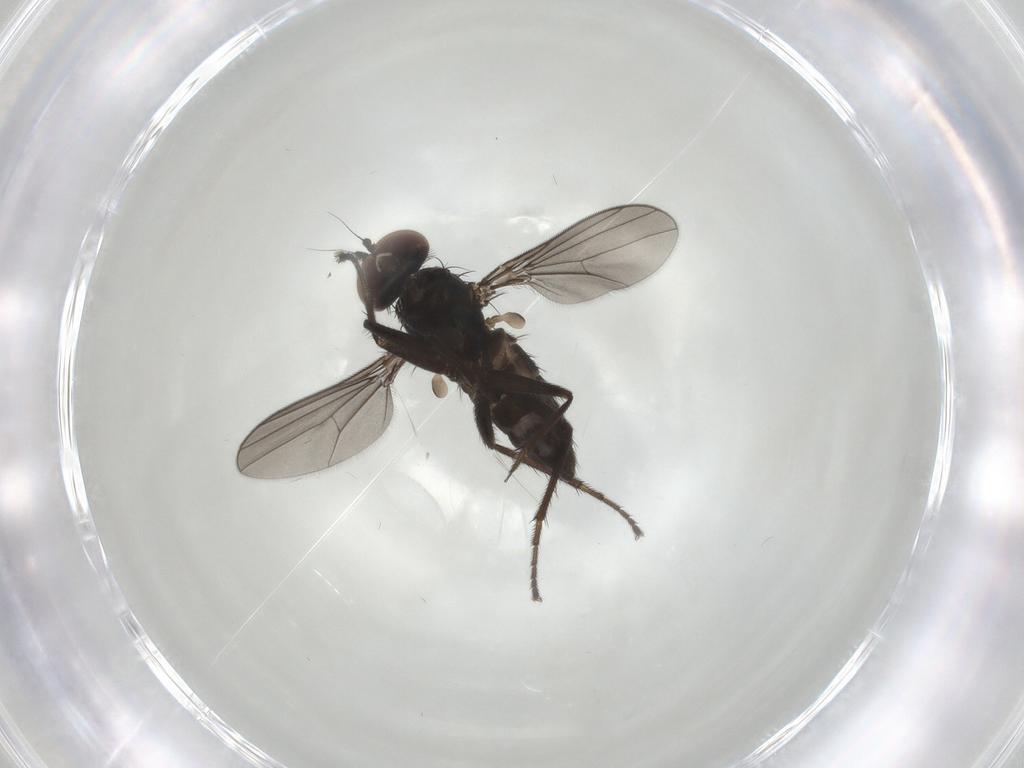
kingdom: Animalia
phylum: Arthropoda
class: Insecta
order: Diptera
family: Dolichopodidae
